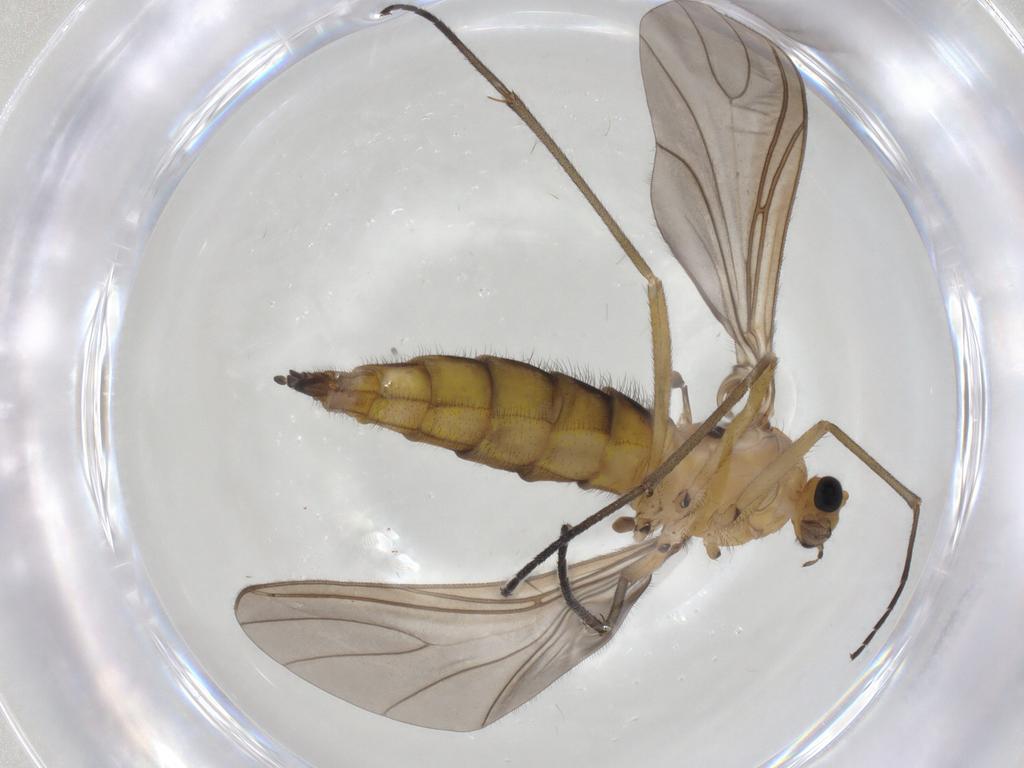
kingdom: Animalia
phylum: Arthropoda
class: Insecta
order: Diptera
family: Sciaridae
